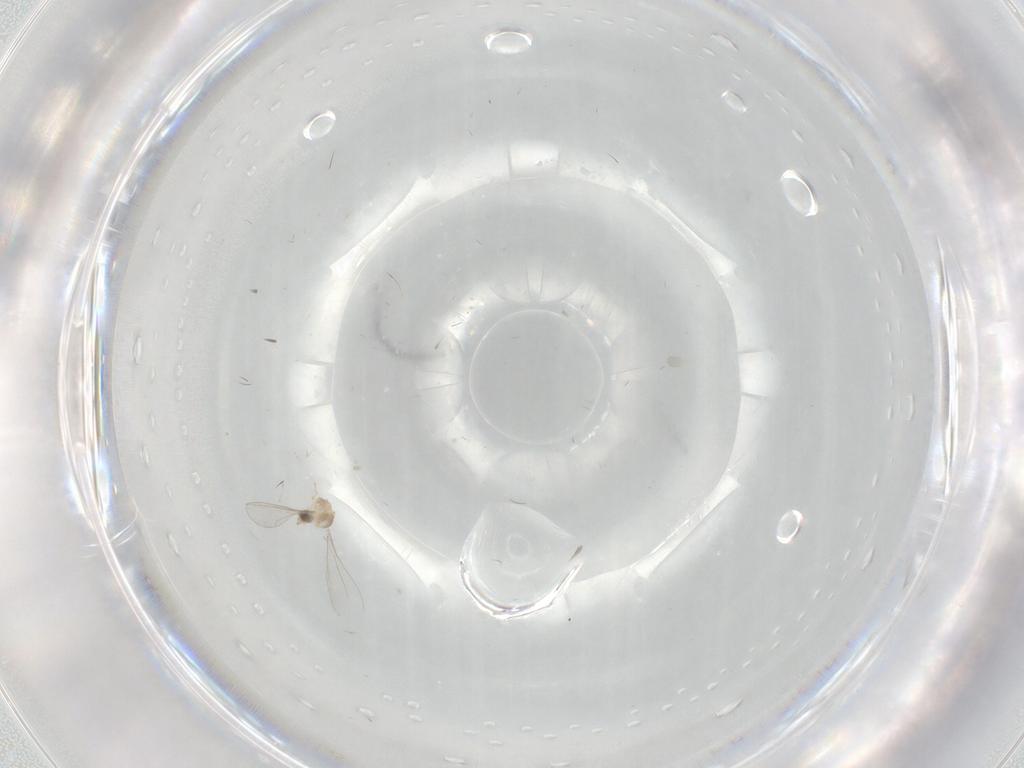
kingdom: Animalia
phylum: Arthropoda
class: Insecta
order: Diptera
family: Cecidomyiidae
